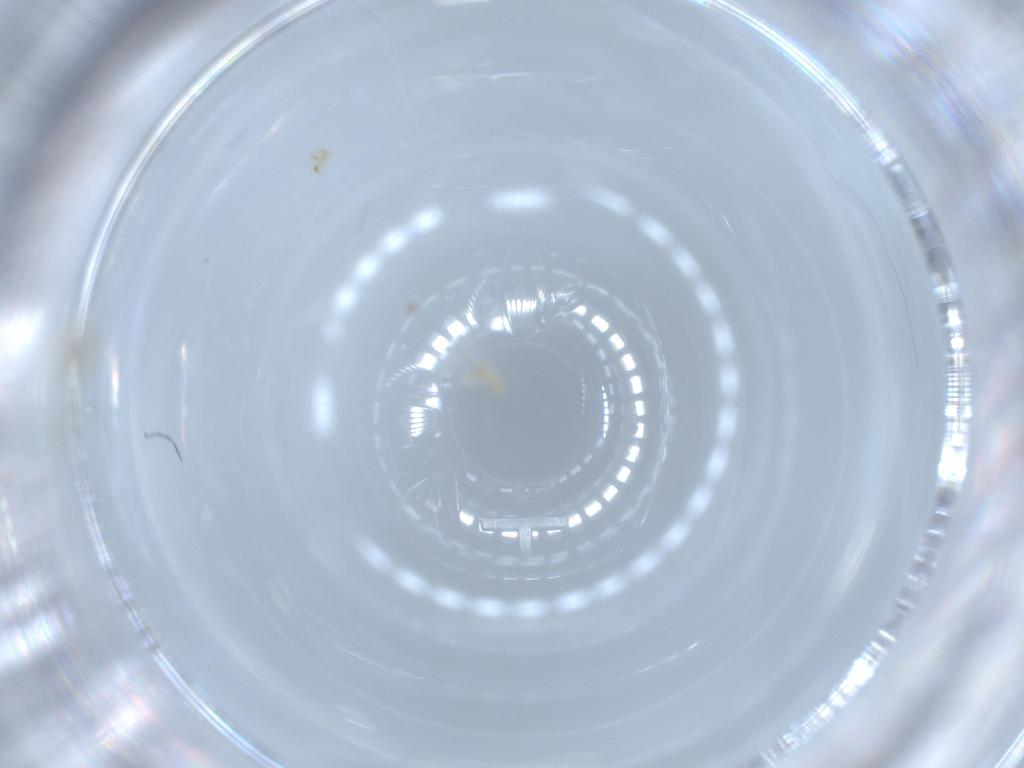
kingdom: Animalia
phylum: Arthropoda
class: Insecta
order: Diptera
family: Cecidomyiidae
